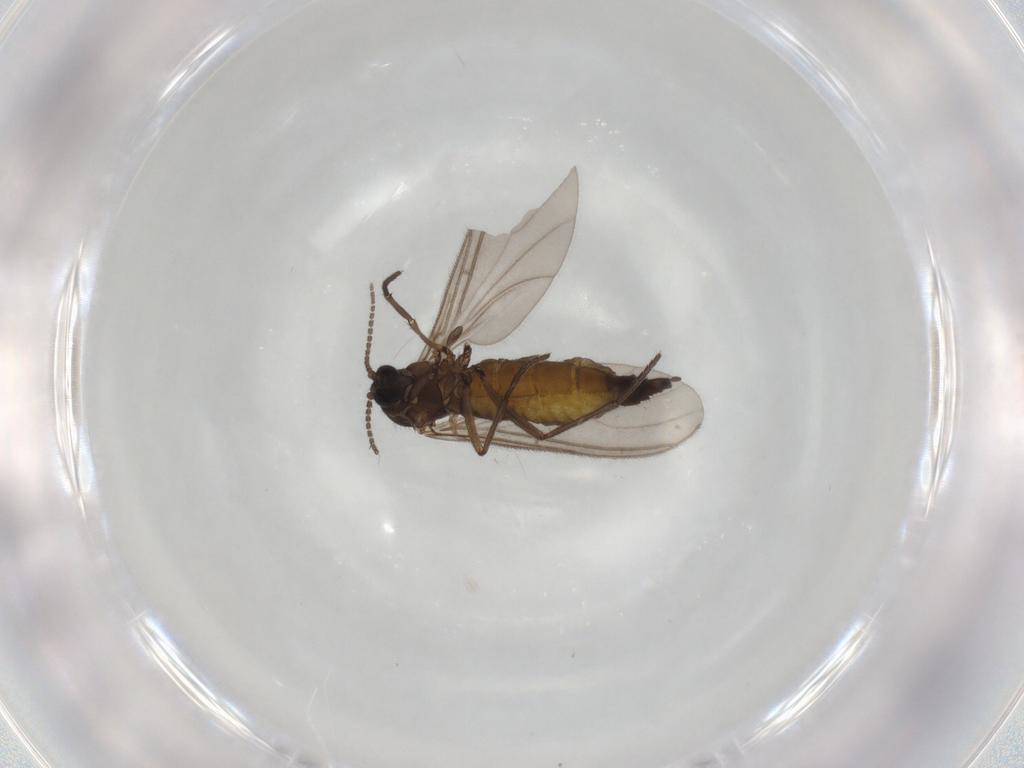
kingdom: Animalia
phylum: Arthropoda
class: Insecta
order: Diptera
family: Sciaridae
